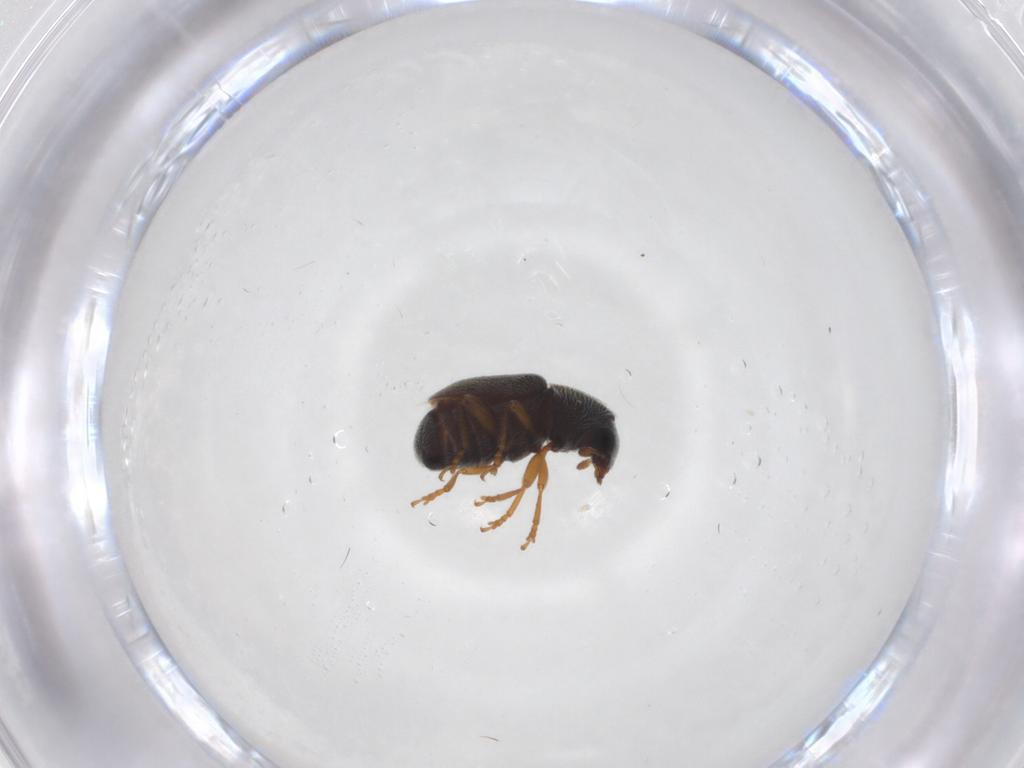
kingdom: Animalia
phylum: Arthropoda
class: Insecta
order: Coleoptera
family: Anthribidae
